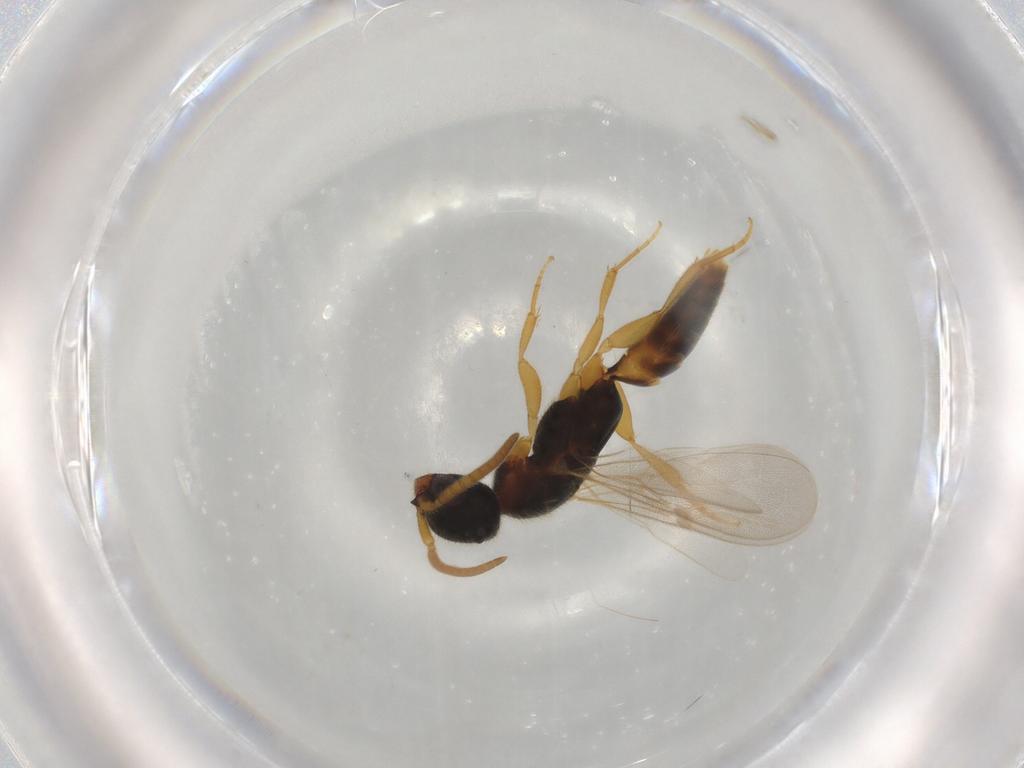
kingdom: Animalia
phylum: Arthropoda
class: Insecta
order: Hymenoptera
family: Bethylidae
